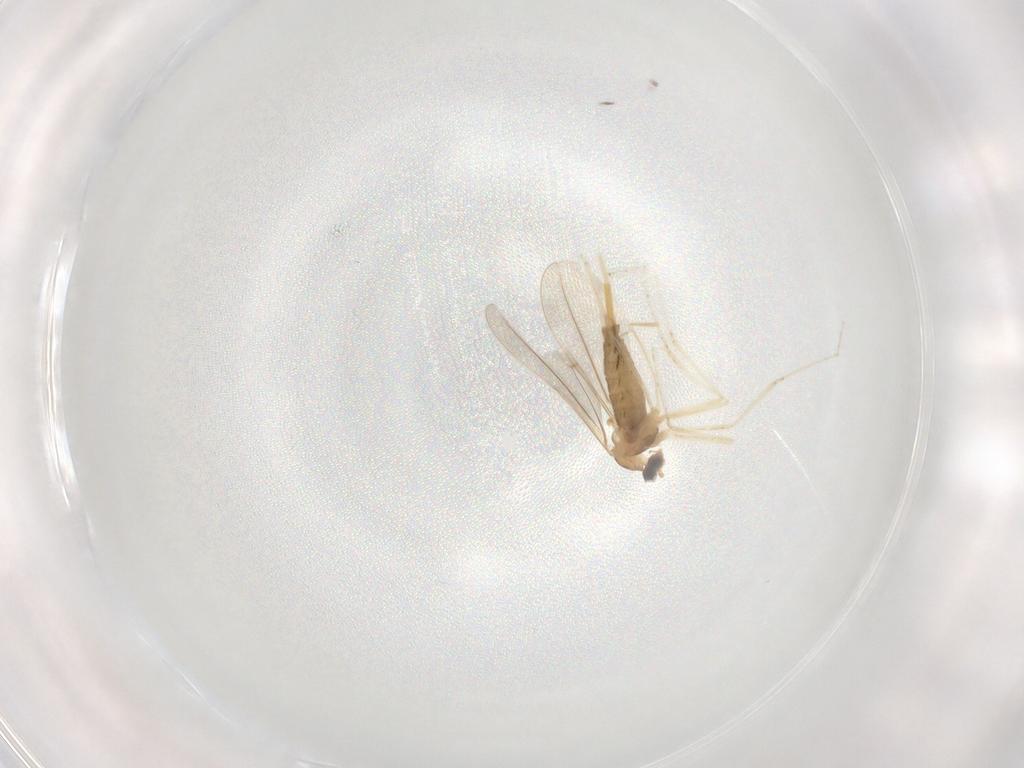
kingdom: Animalia
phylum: Arthropoda
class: Insecta
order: Diptera
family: Cecidomyiidae
